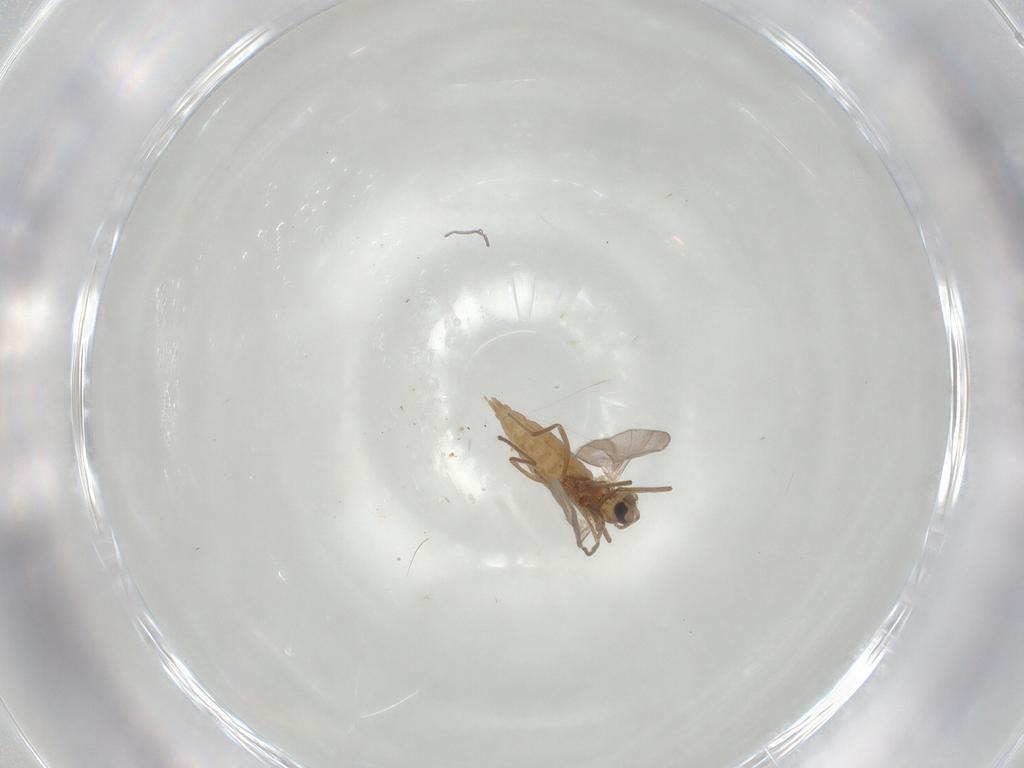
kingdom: Animalia
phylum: Arthropoda
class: Insecta
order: Diptera
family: Cecidomyiidae
